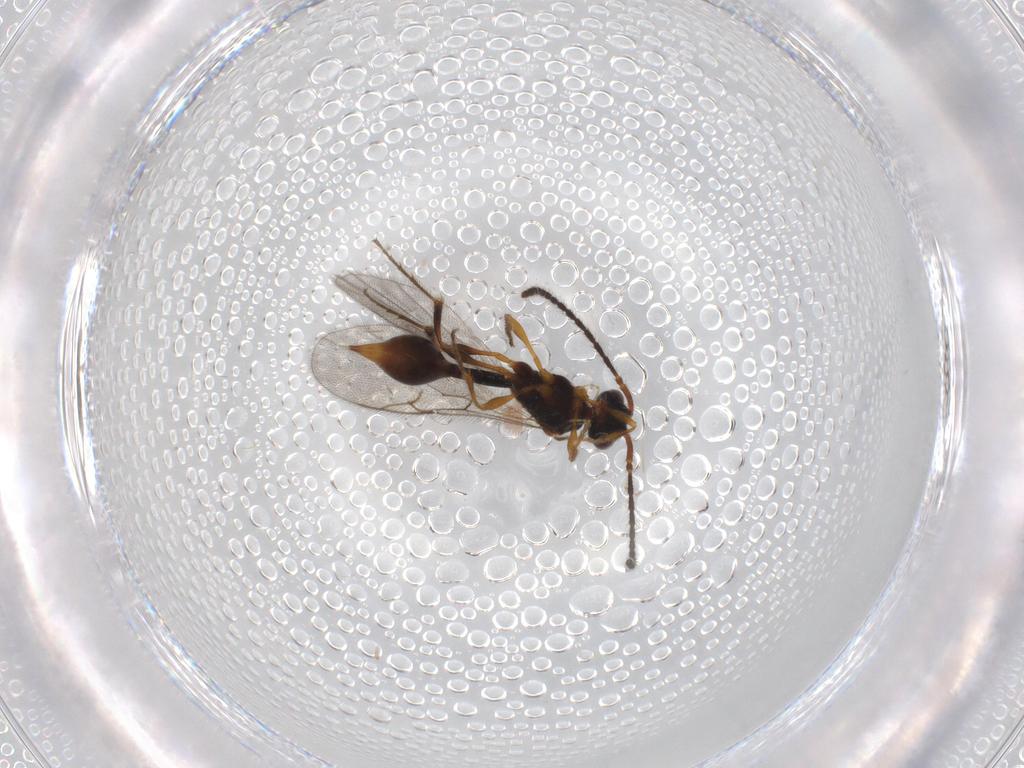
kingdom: Animalia
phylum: Arthropoda
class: Insecta
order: Hymenoptera
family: Diapriidae
